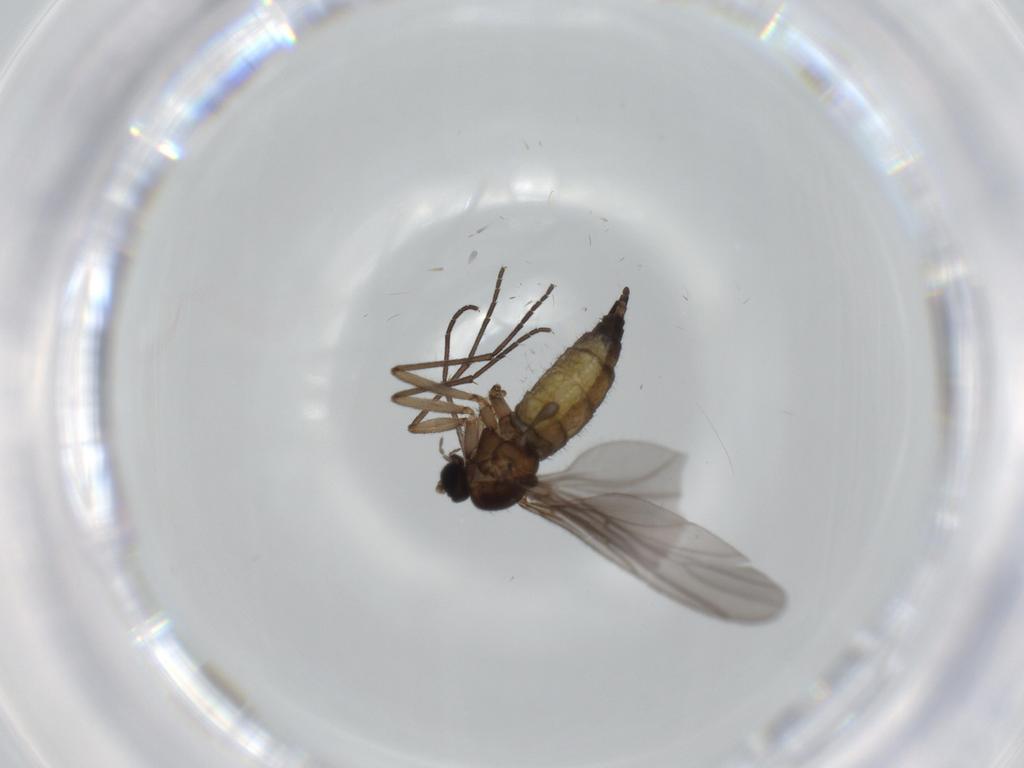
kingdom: Animalia
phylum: Arthropoda
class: Insecta
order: Diptera
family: Sciaridae
